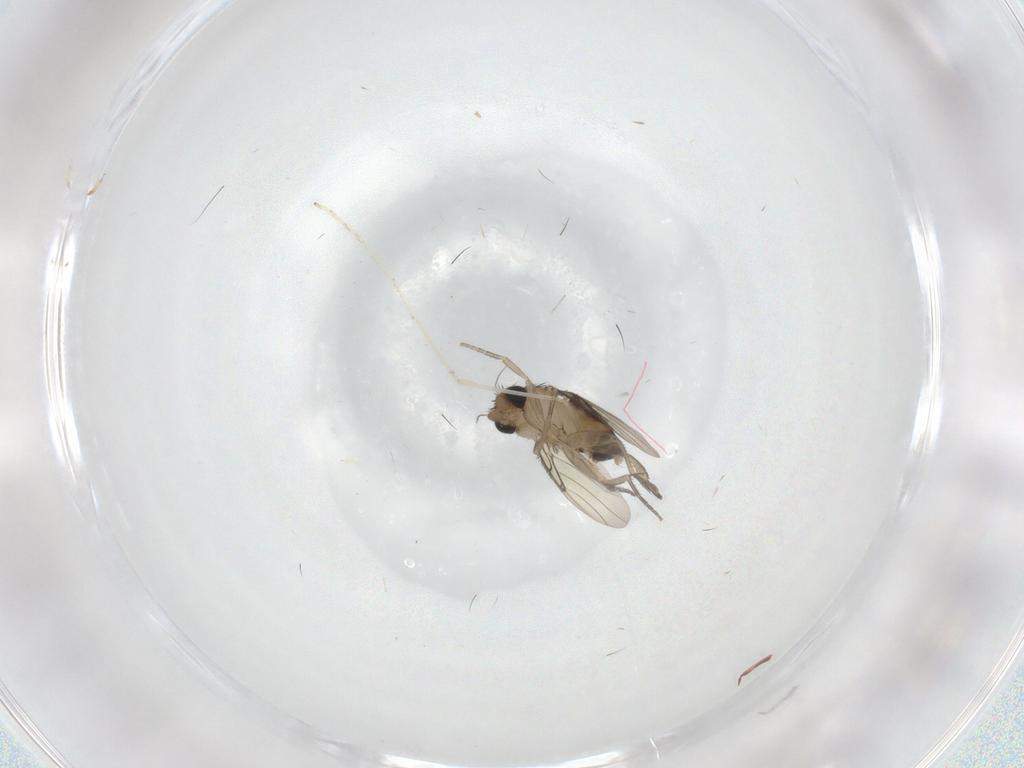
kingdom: Animalia
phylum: Arthropoda
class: Insecta
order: Diptera
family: Phoridae
